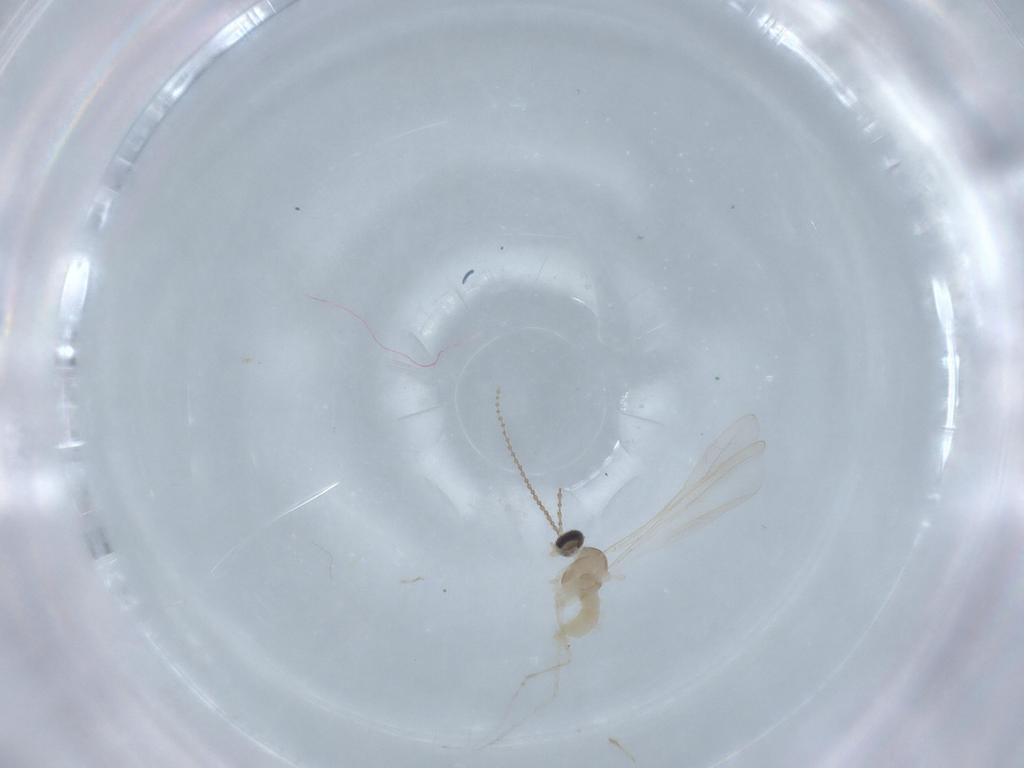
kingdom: Animalia
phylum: Arthropoda
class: Insecta
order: Diptera
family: Cecidomyiidae
